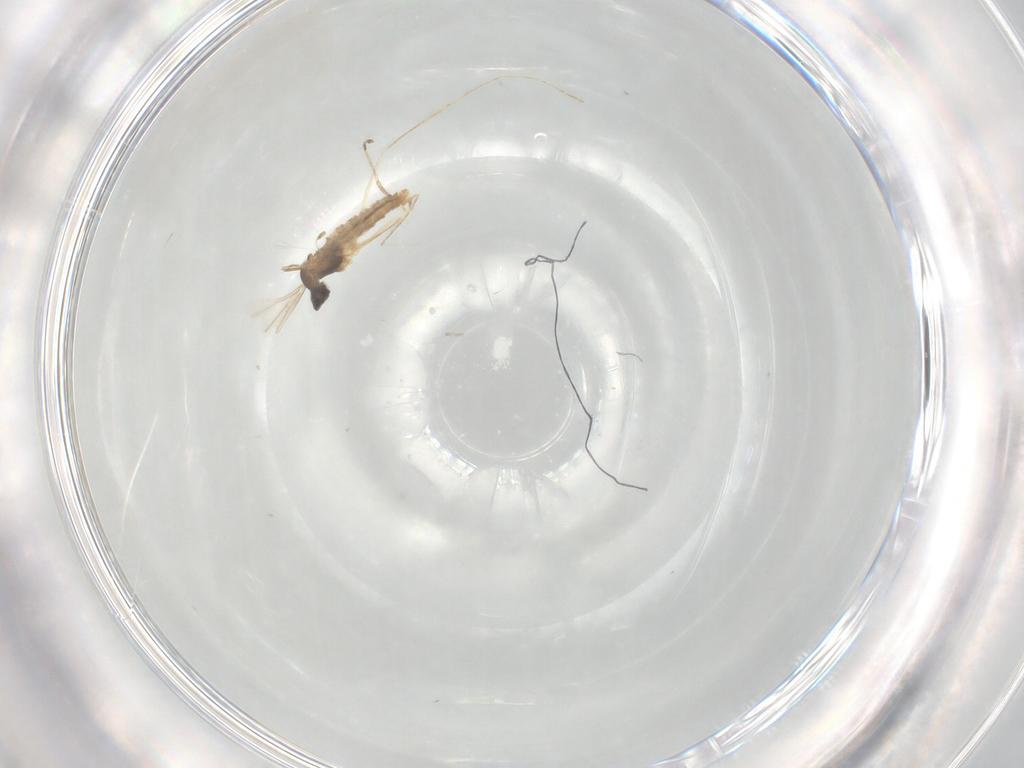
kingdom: Animalia
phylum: Arthropoda
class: Insecta
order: Diptera
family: Cecidomyiidae
